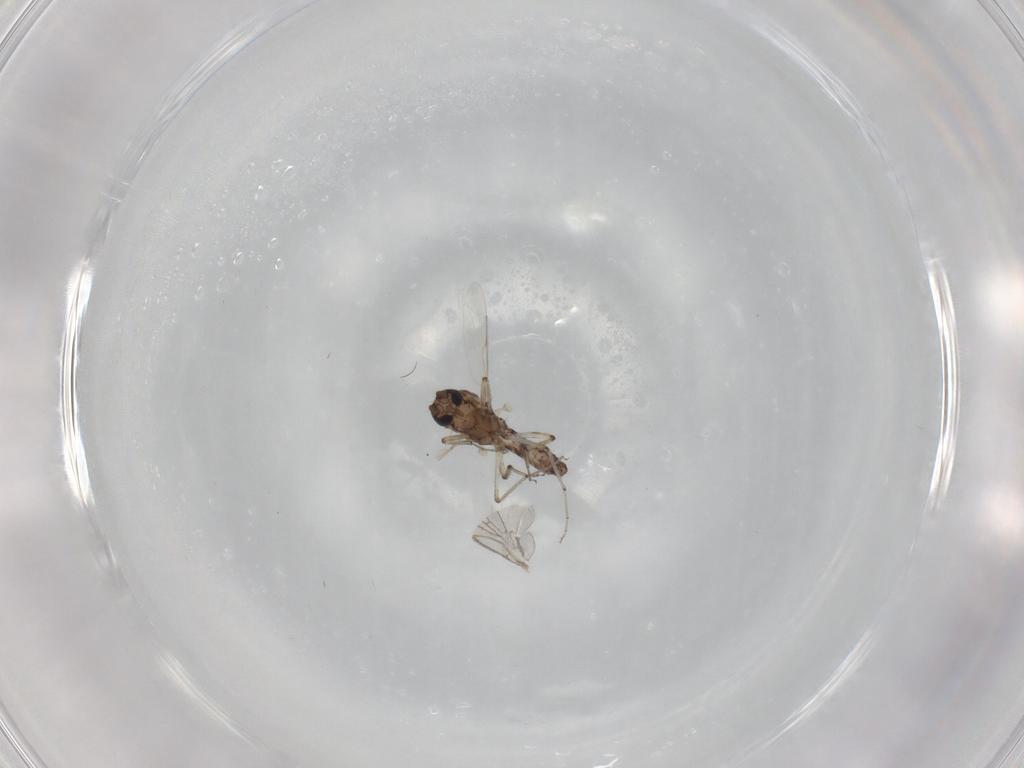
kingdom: Animalia
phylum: Arthropoda
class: Insecta
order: Diptera
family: Ceratopogonidae
